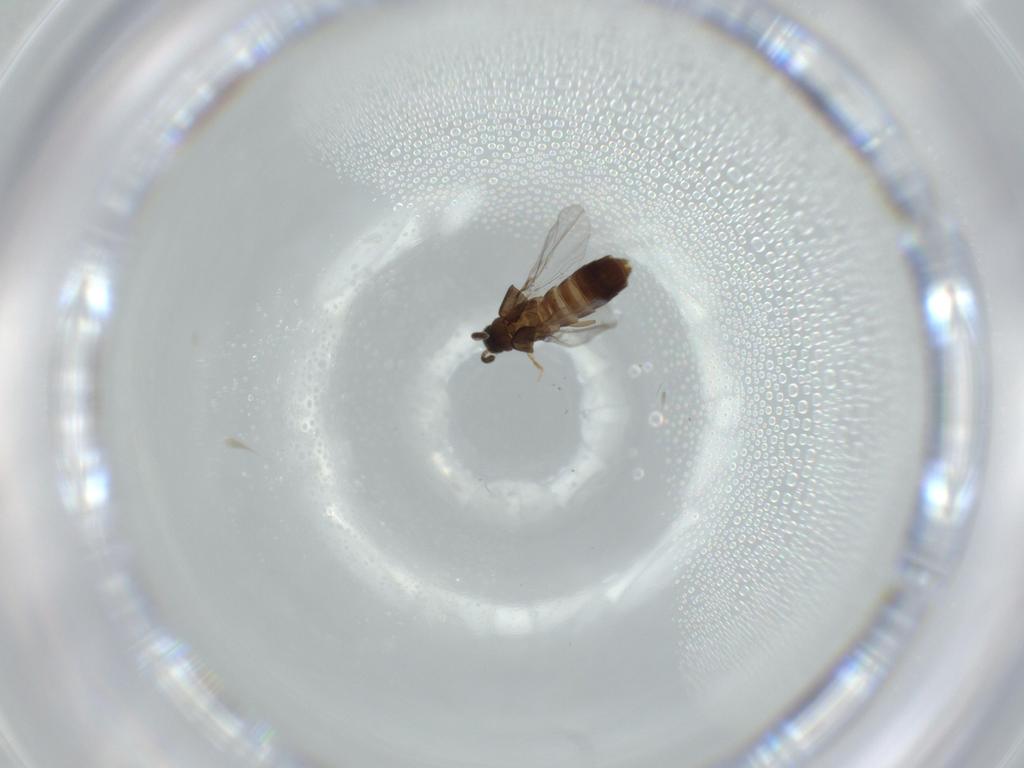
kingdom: Animalia
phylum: Arthropoda
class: Insecta
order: Coleoptera
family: Staphylinidae
